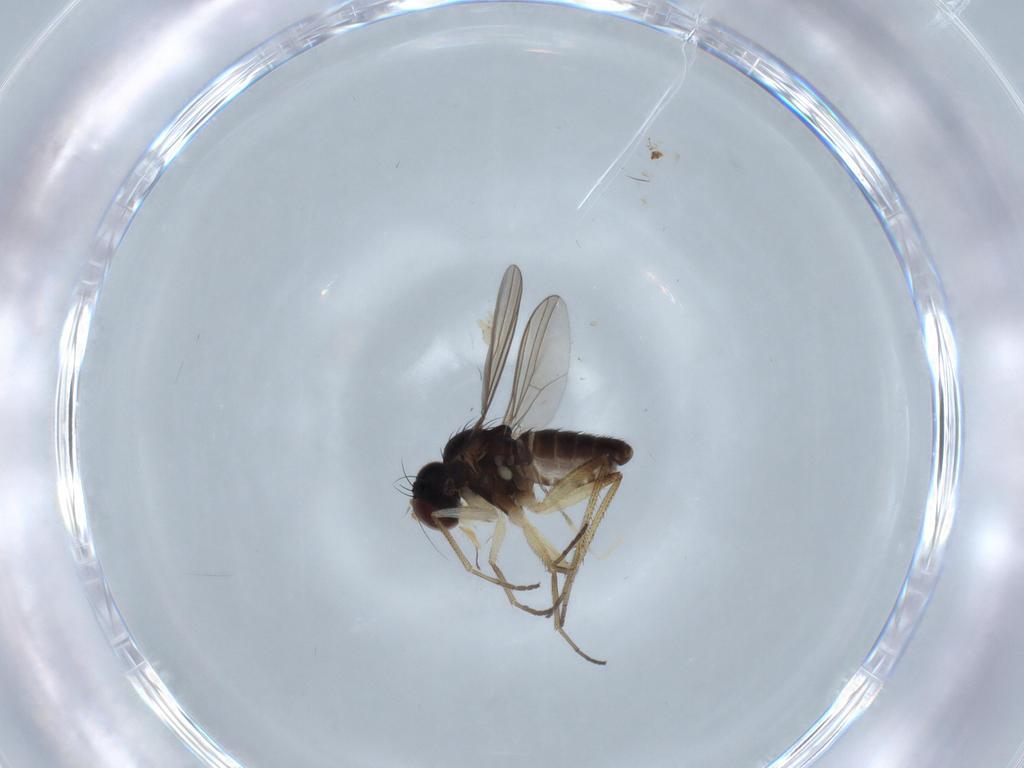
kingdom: Animalia
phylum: Arthropoda
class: Insecta
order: Diptera
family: Dolichopodidae
